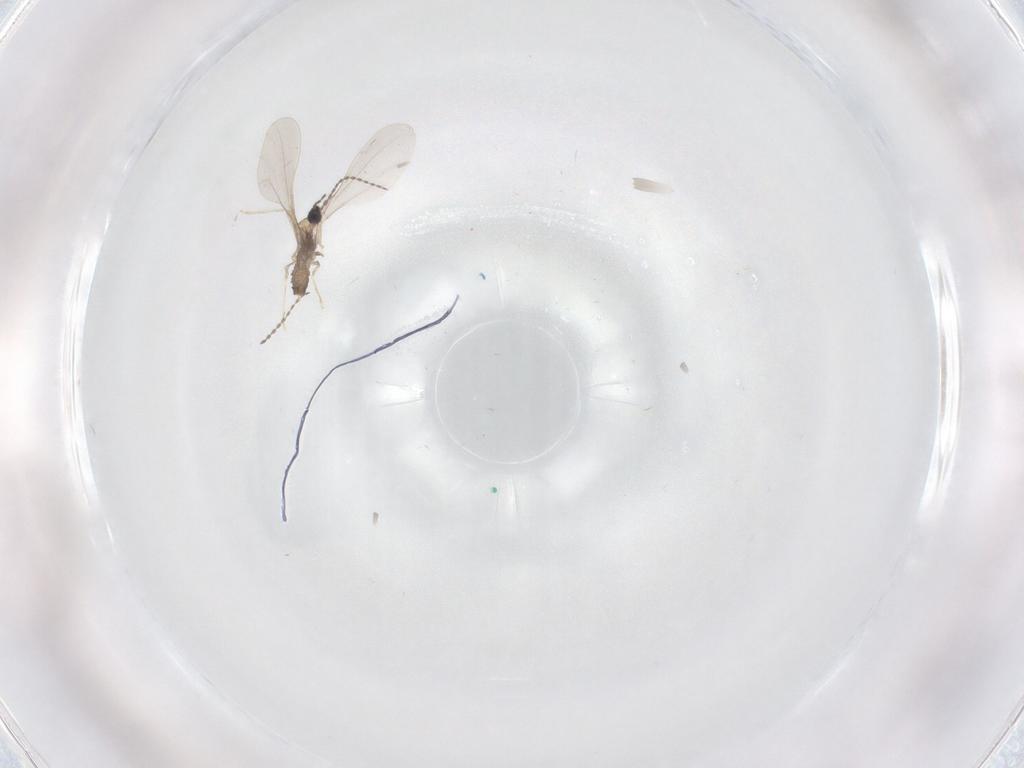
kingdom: Animalia
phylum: Arthropoda
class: Insecta
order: Diptera
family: Cecidomyiidae
